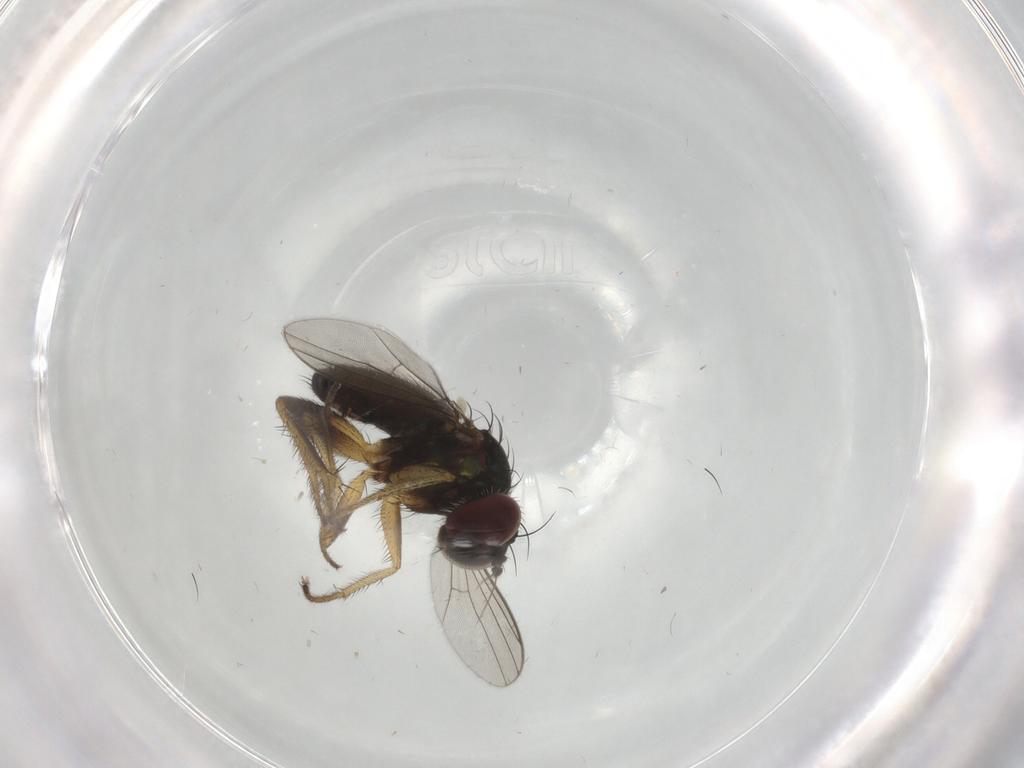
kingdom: Animalia
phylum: Arthropoda
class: Insecta
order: Diptera
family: Dolichopodidae
